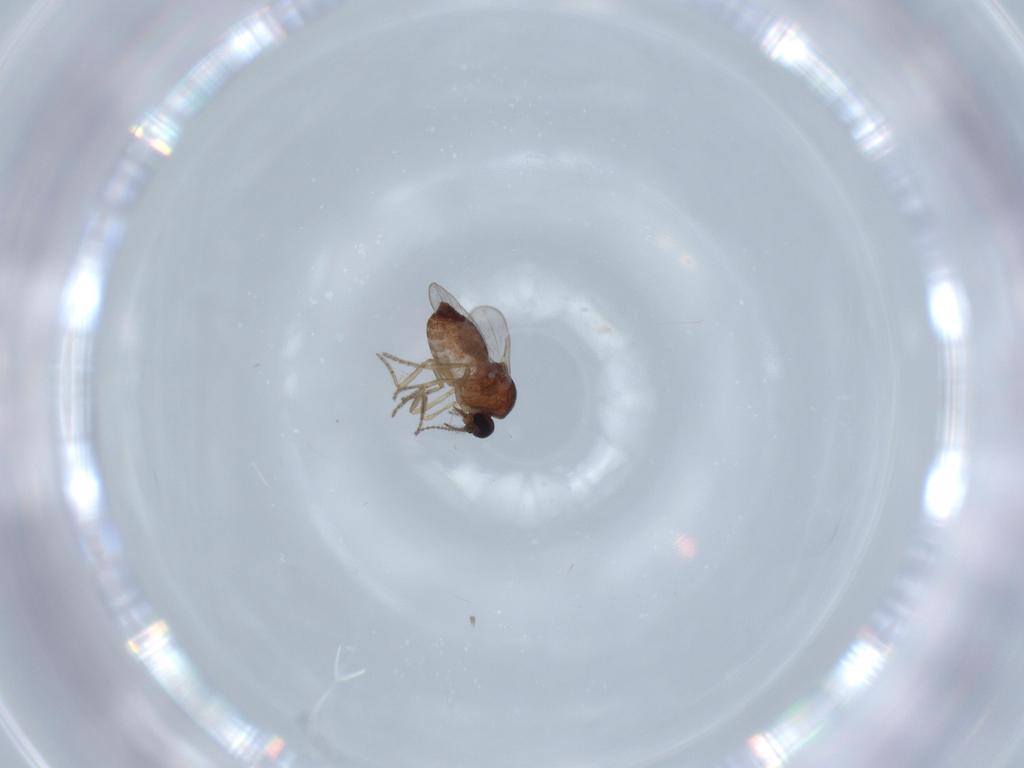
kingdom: Animalia
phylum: Arthropoda
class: Insecta
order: Diptera
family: Ceratopogonidae
